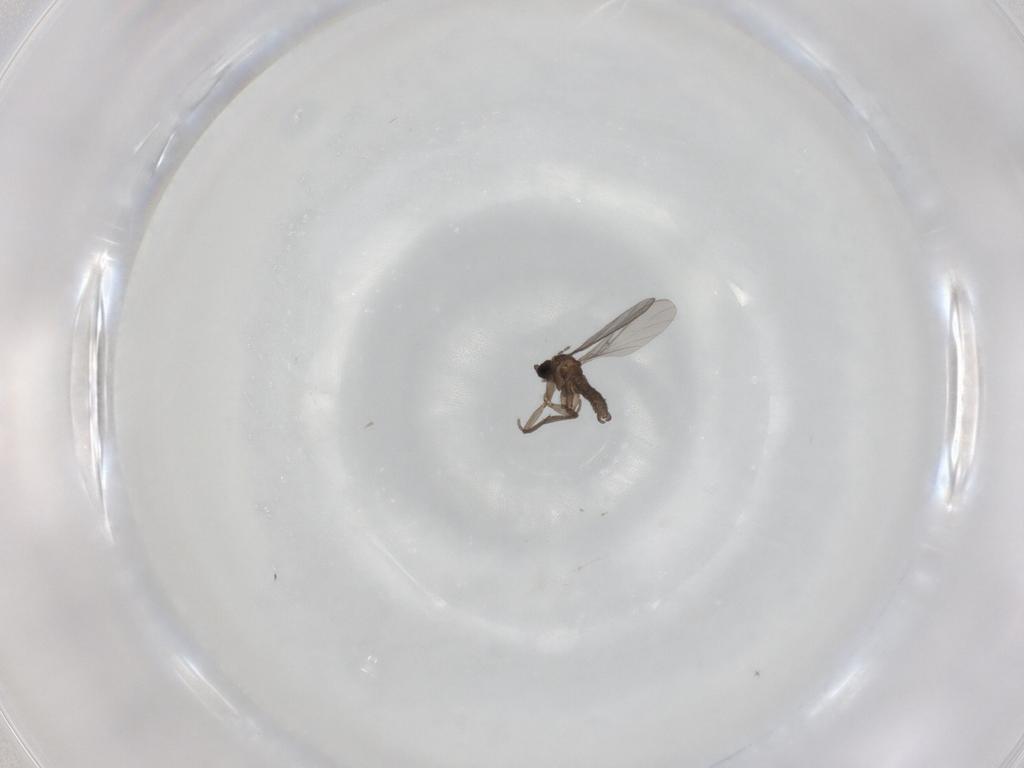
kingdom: Animalia
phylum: Arthropoda
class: Insecta
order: Diptera
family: Sciaridae
